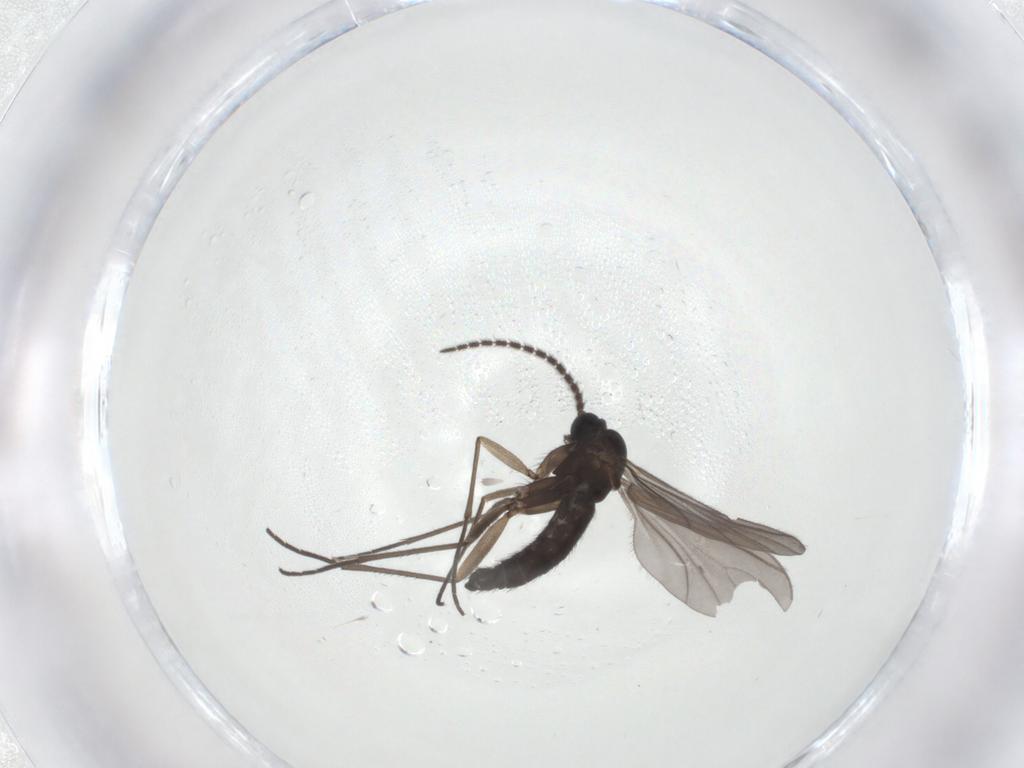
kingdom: Animalia
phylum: Arthropoda
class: Insecta
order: Diptera
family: Sciaridae
